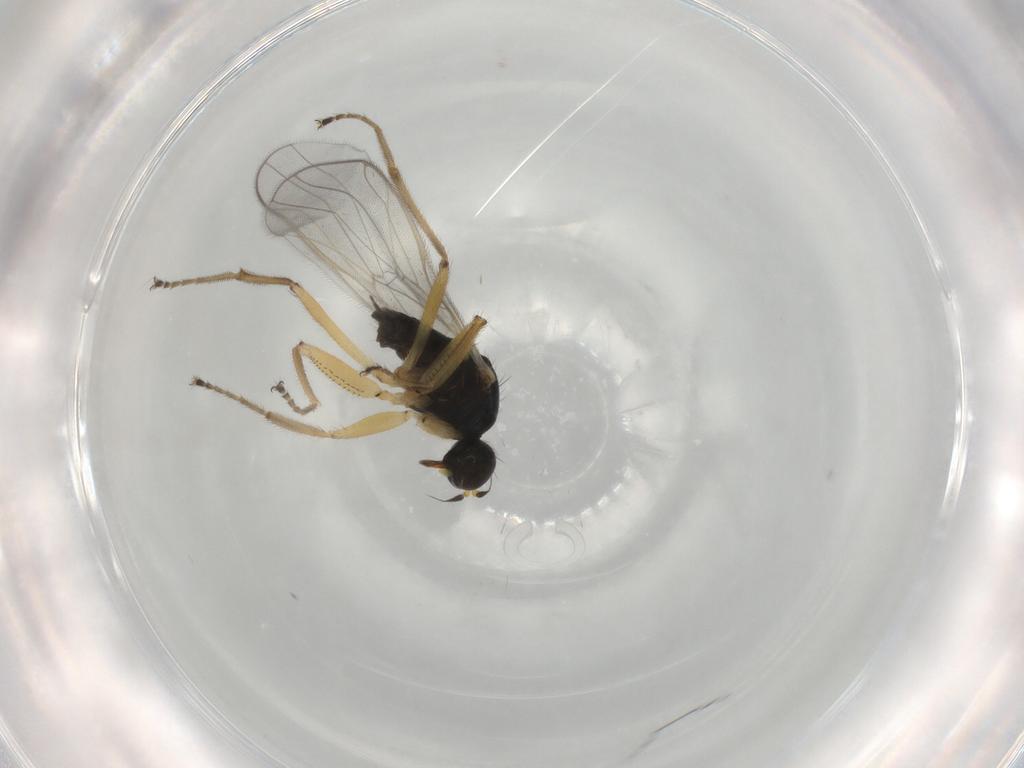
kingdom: Animalia
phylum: Arthropoda
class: Insecta
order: Diptera
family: Hybotidae
